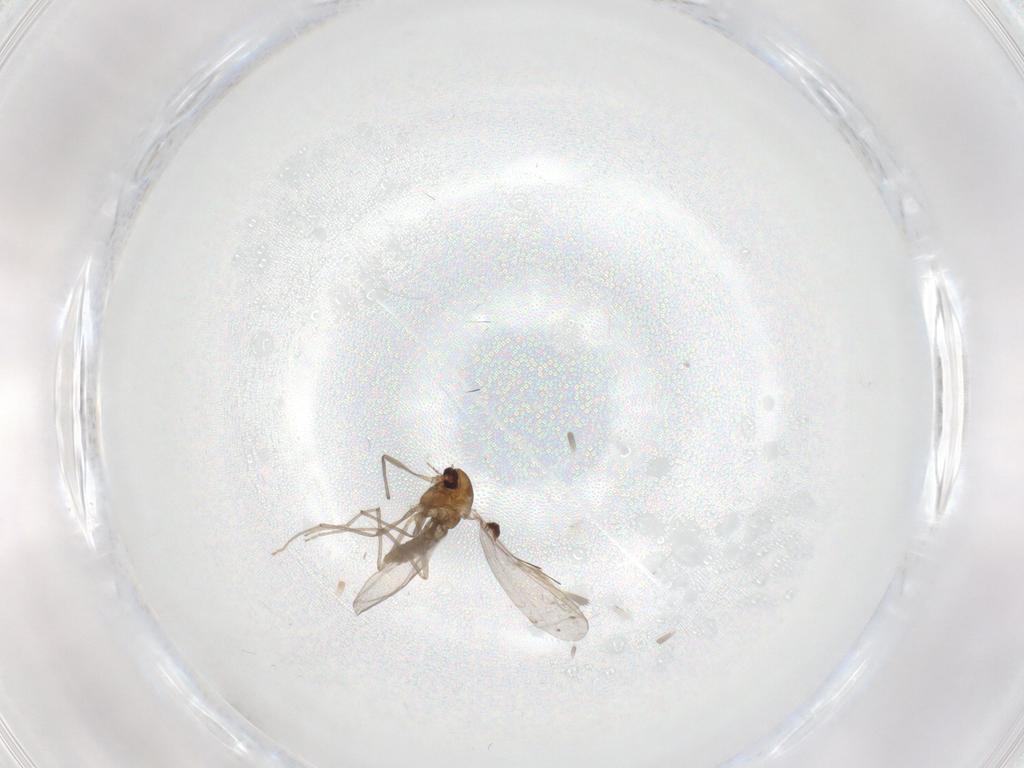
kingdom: Animalia
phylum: Arthropoda
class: Insecta
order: Diptera
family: Chironomidae
